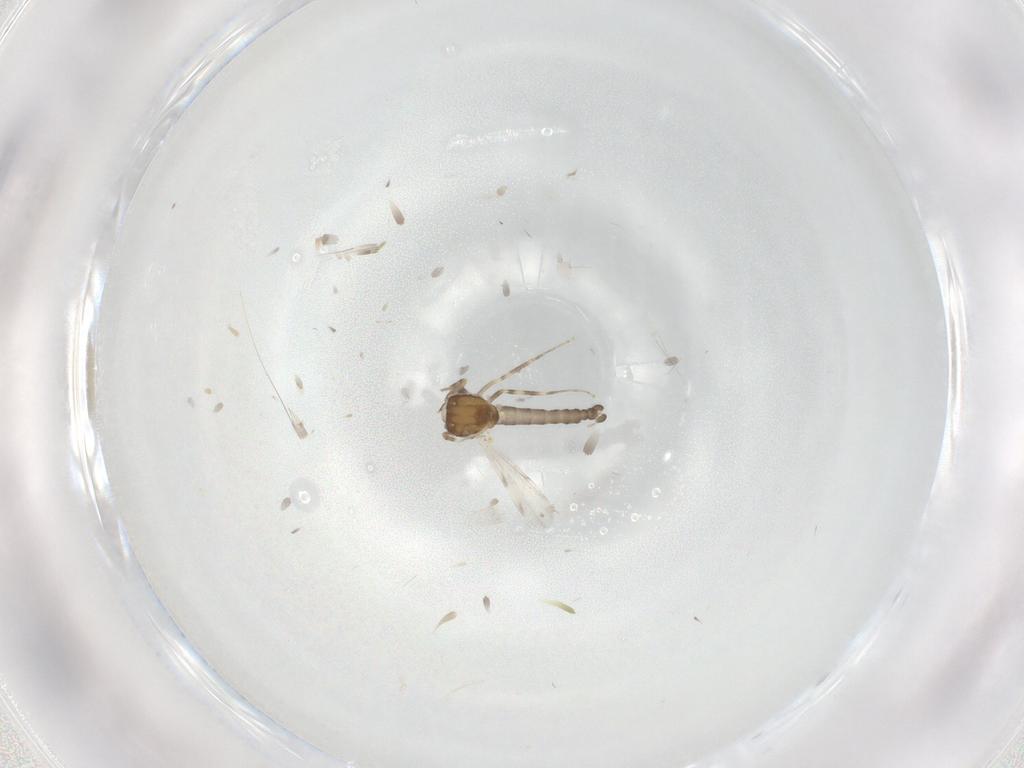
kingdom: Animalia
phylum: Arthropoda
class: Insecta
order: Diptera
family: Ceratopogonidae
